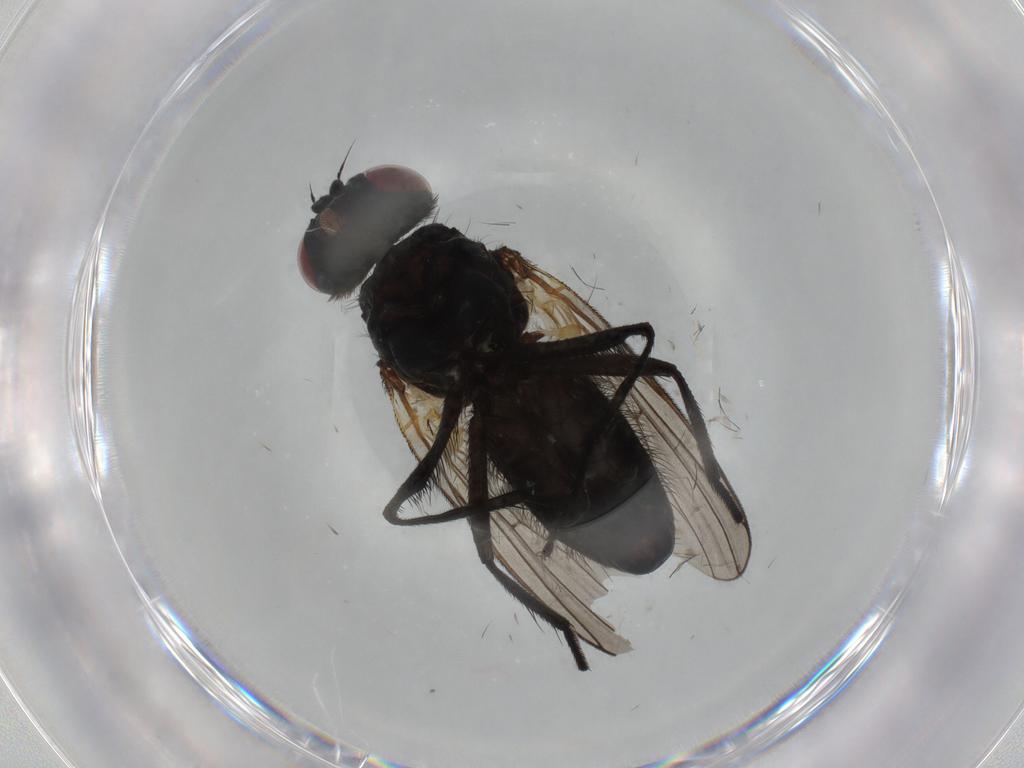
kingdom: Animalia
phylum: Arthropoda
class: Insecta
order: Diptera
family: Fannia
